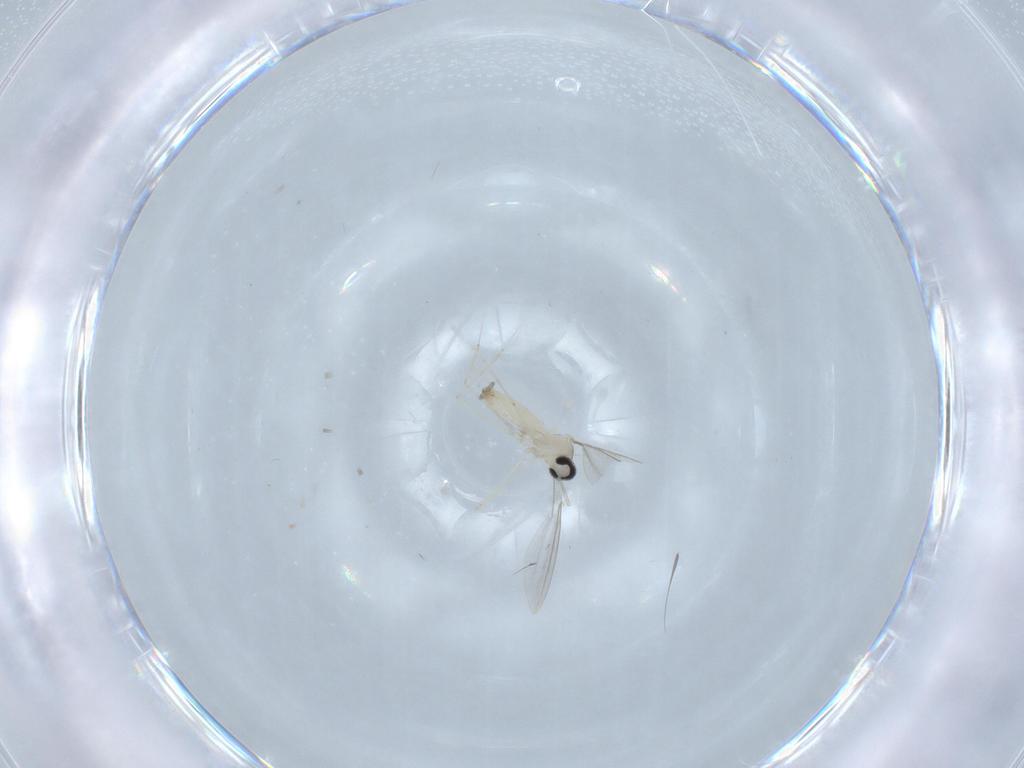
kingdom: Animalia
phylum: Arthropoda
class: Insecta
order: Diptera
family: Cecidomyiidae
